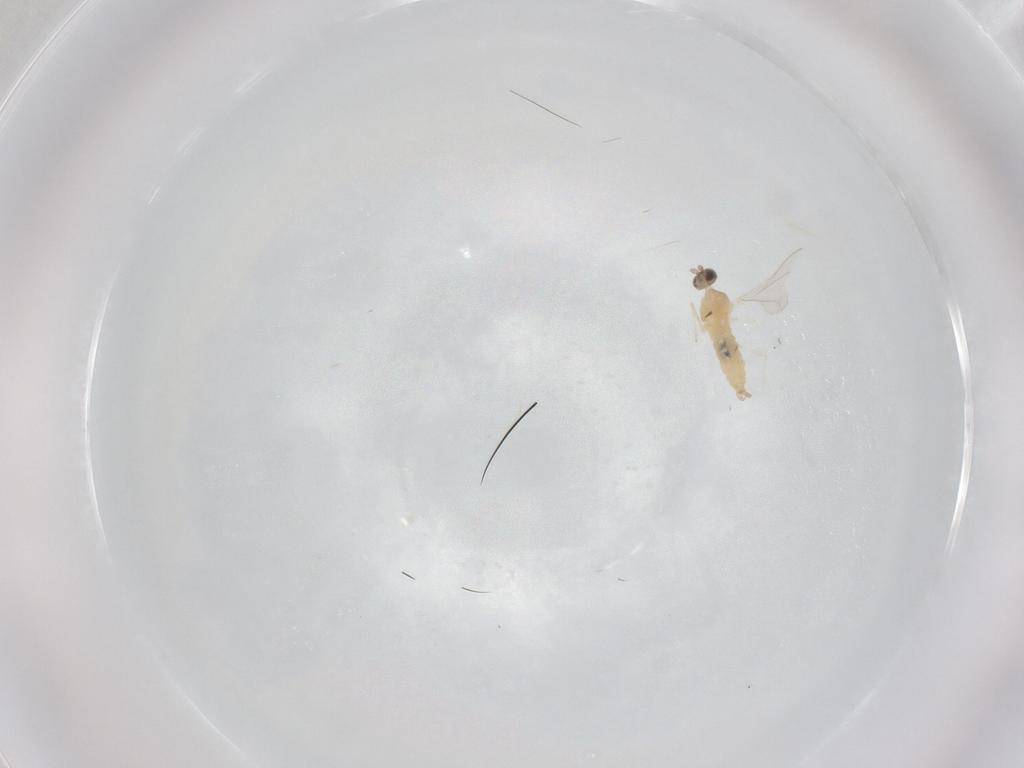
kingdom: Animalia
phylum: Arthropoda
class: Insecta
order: Diptera
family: Cecidomyiidae
